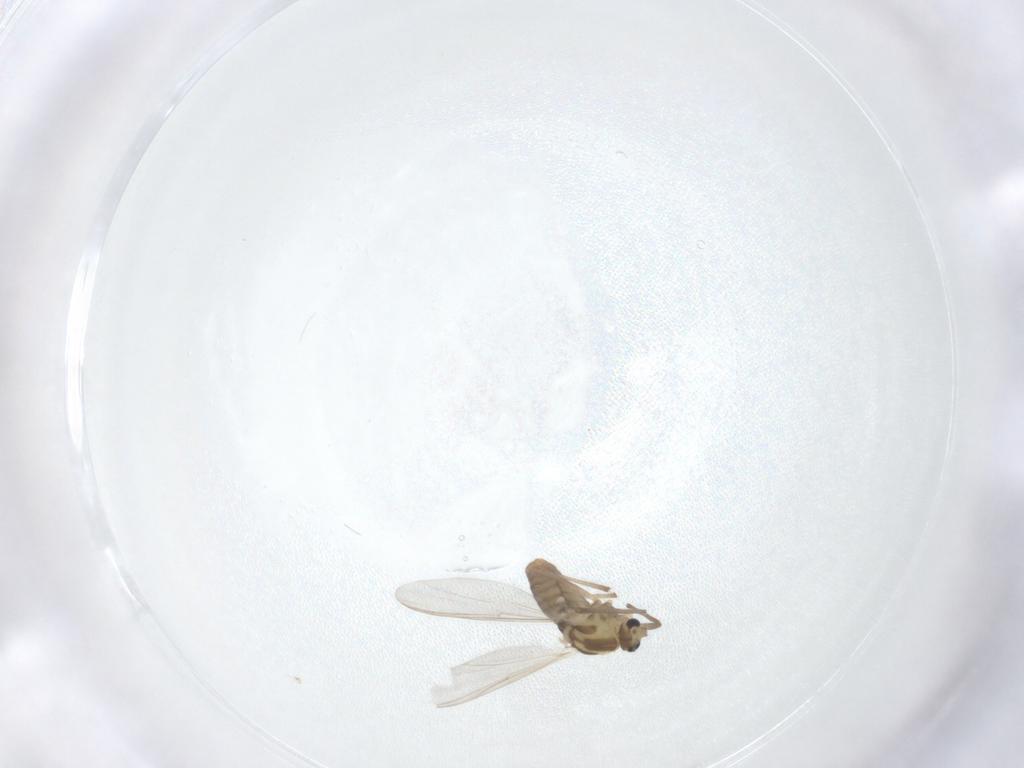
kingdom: Animalia
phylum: Arthropoda
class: Insecta
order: Diptera
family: Chironomidae
